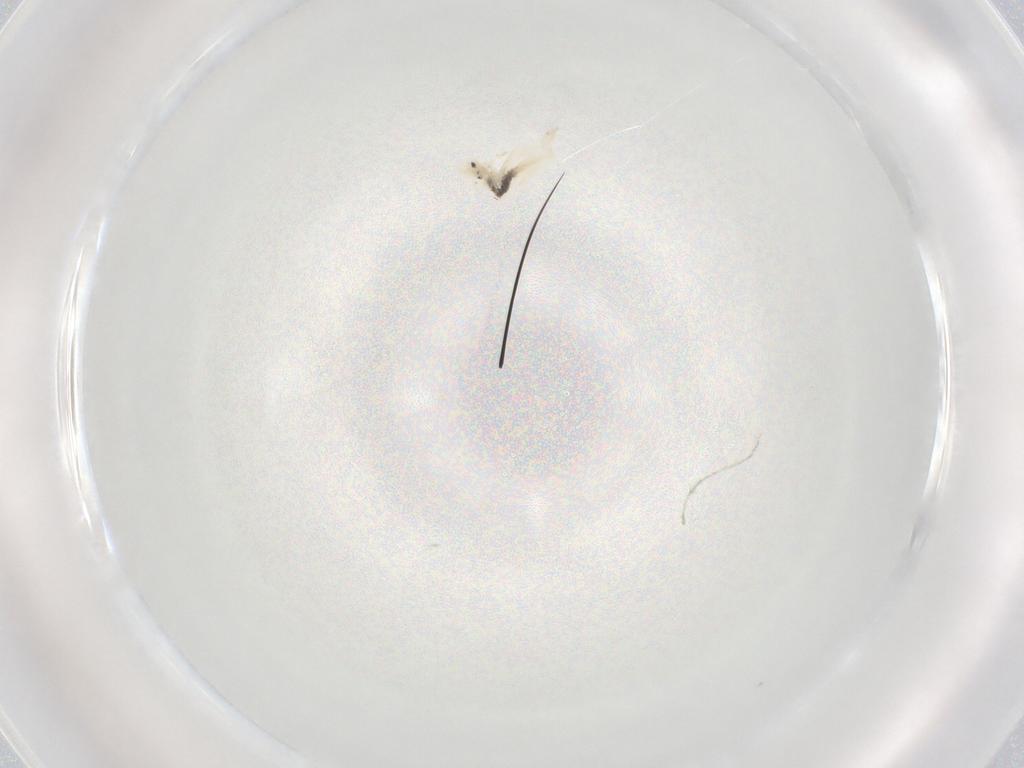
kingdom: Animalia
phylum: Arthropoda
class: Collembola
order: Entomobryomorpha
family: Entomobryidae
